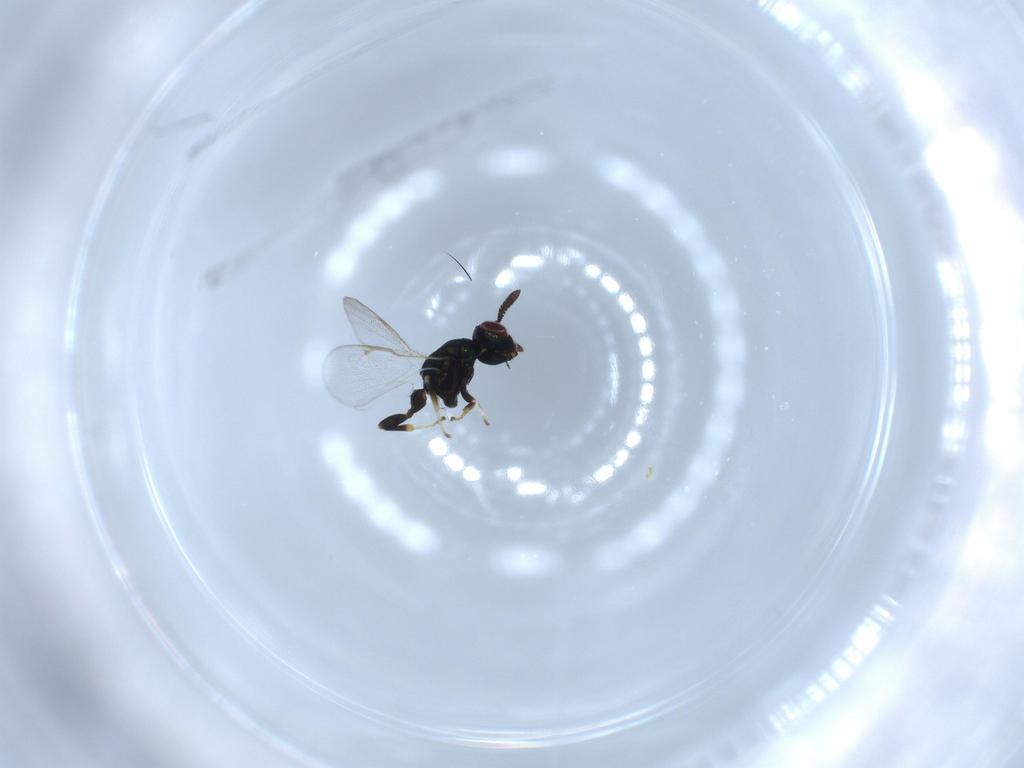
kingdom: Animalia
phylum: Arthropoda
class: Insecta
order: Hymenoptera
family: Torymidae
